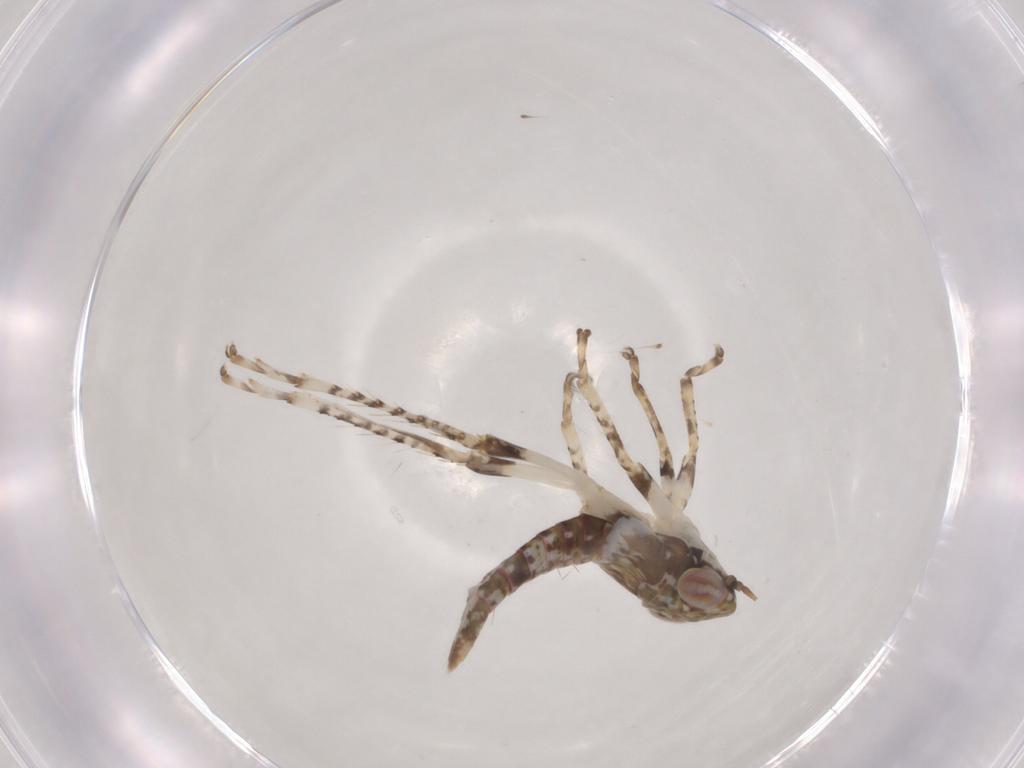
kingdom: Animalia
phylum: Arthropoda
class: Insecta
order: Hemiptera
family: Cicadellidae
